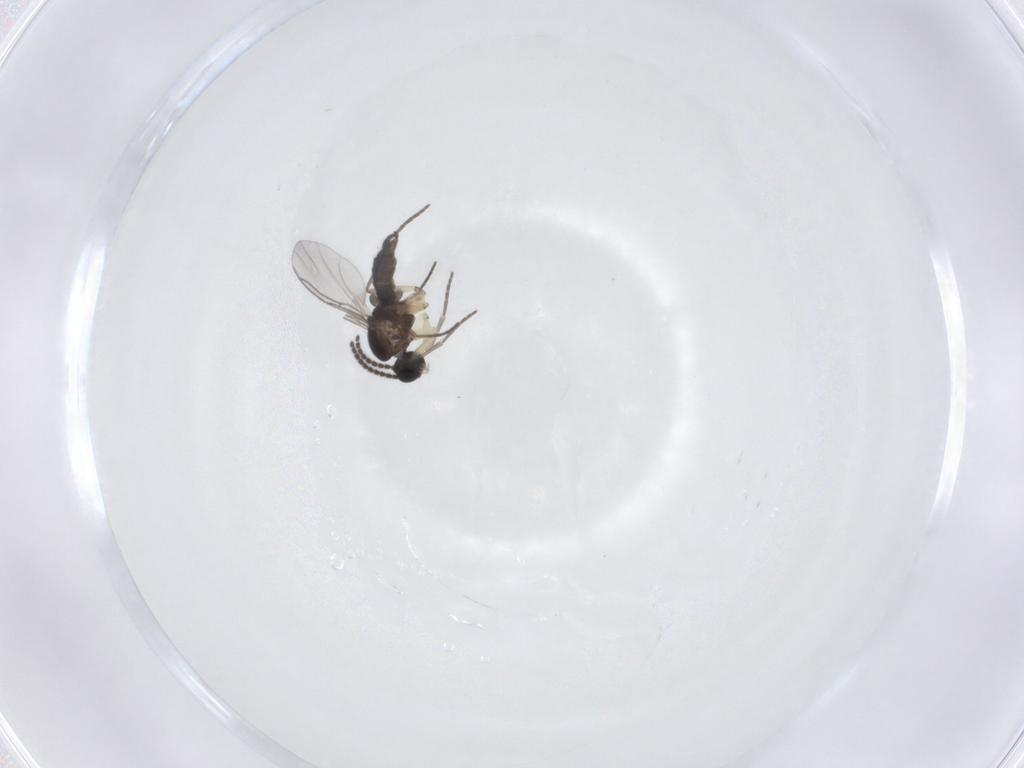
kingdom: Animalia
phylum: Arthropoda
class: Insecta
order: Diptera
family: Sciaridae
